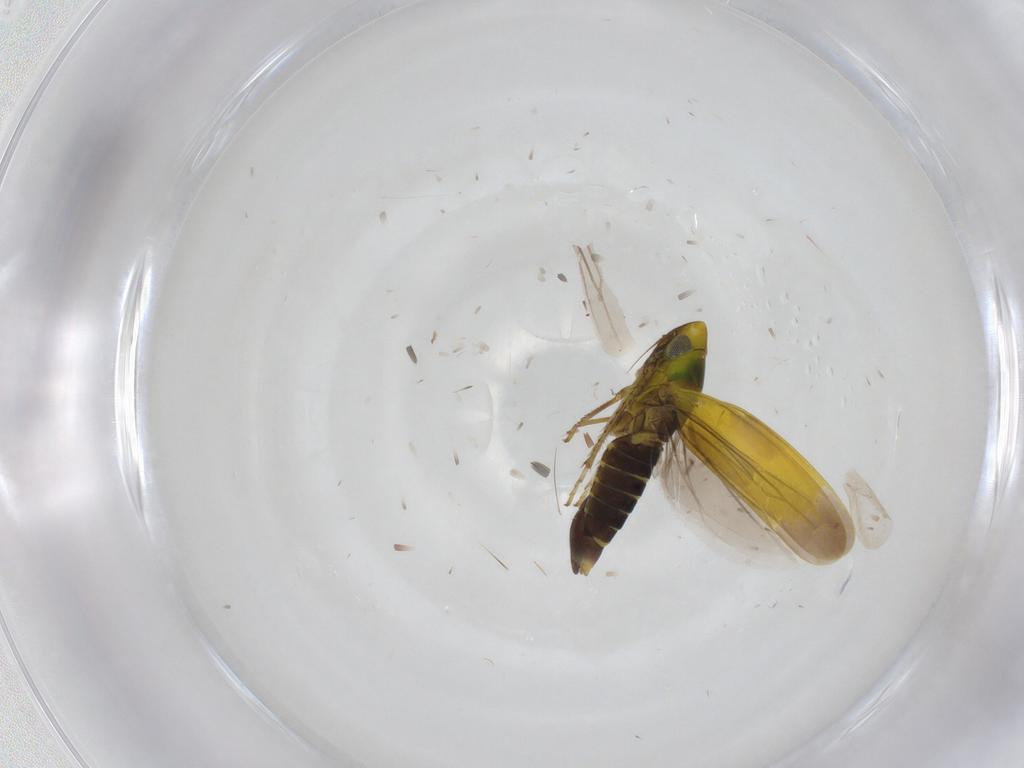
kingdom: Animalia
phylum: Arthropoda
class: Insecta
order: Hemiptera
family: Cicadellidae
